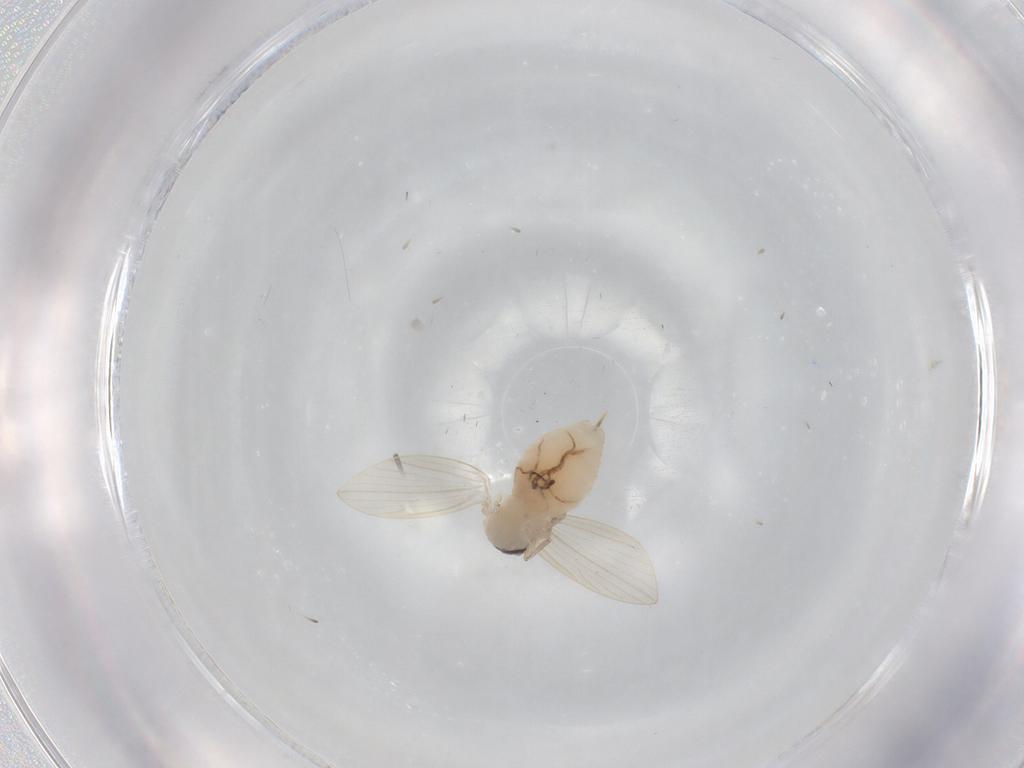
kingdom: Animalia
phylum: Arthropoda
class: Insecta
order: Diptera
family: Psychodidae
